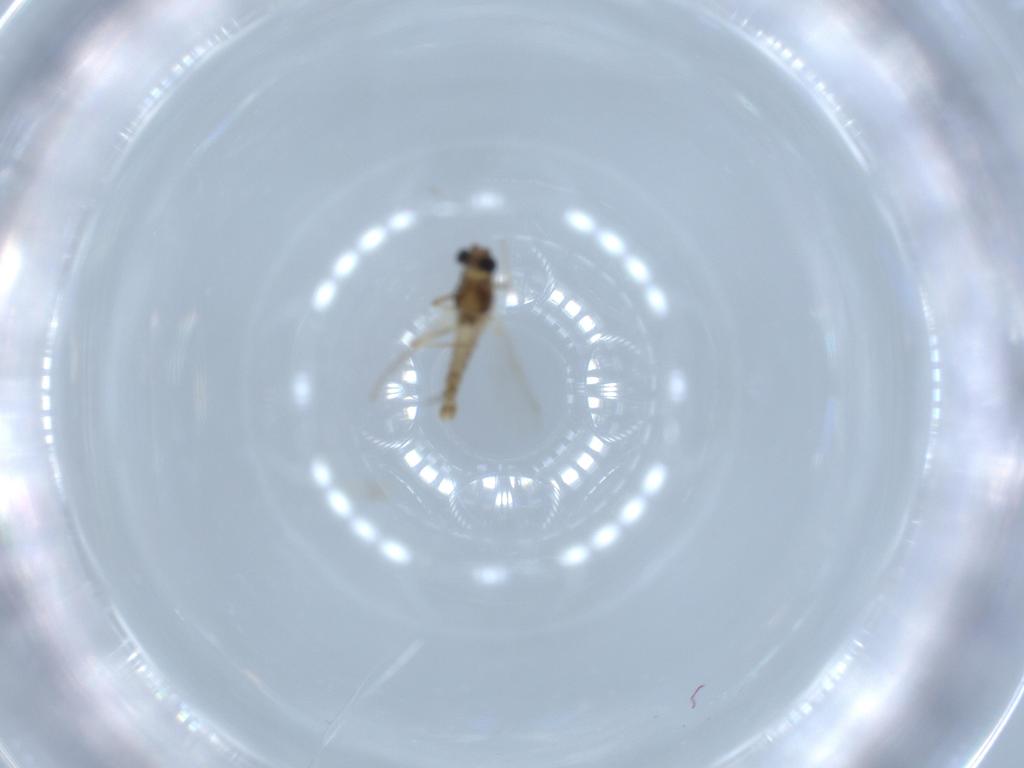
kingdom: Animalia
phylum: Arthropoda
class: Insecta
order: Diptera
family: Chironomidae
